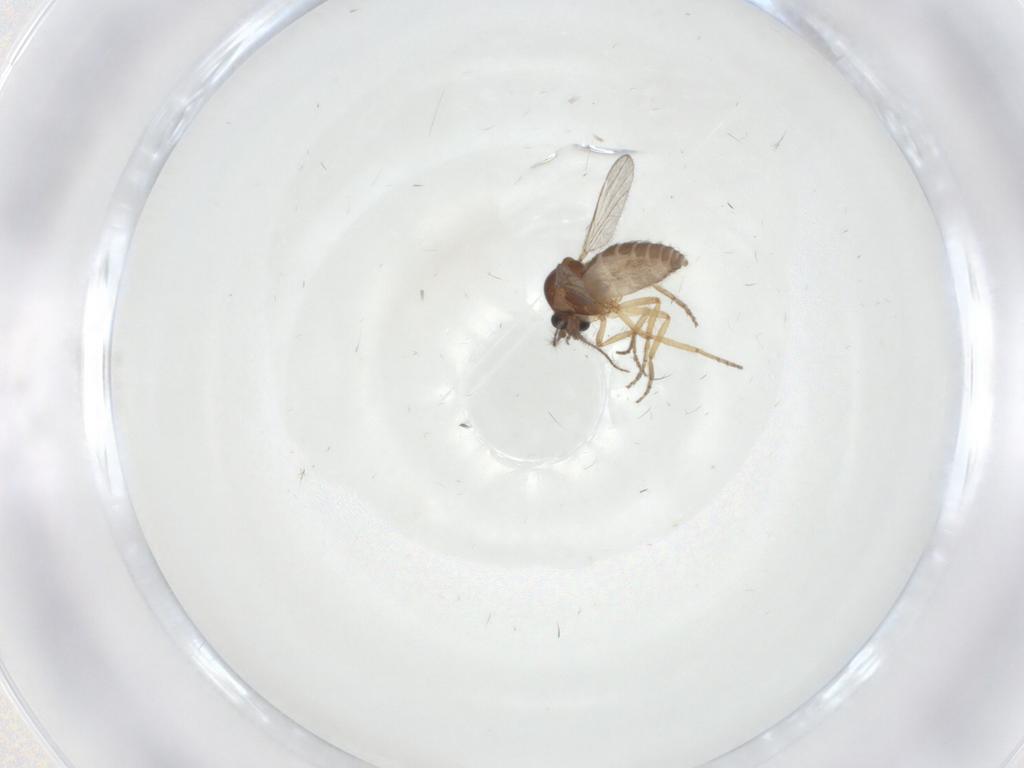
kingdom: Animalia
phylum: Arthropoda
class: Insecta
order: Diptera
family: Ceratopogonidae
